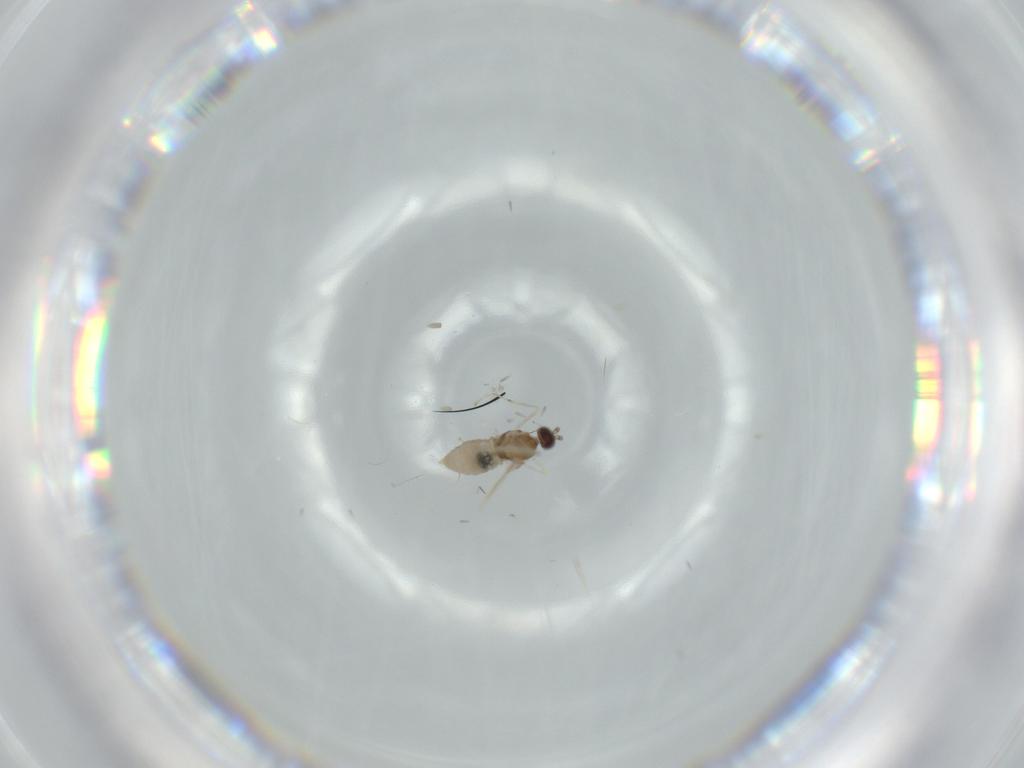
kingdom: Animalia
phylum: Arthropoda
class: Insecta
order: Diptera
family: Cecidomyiidae
